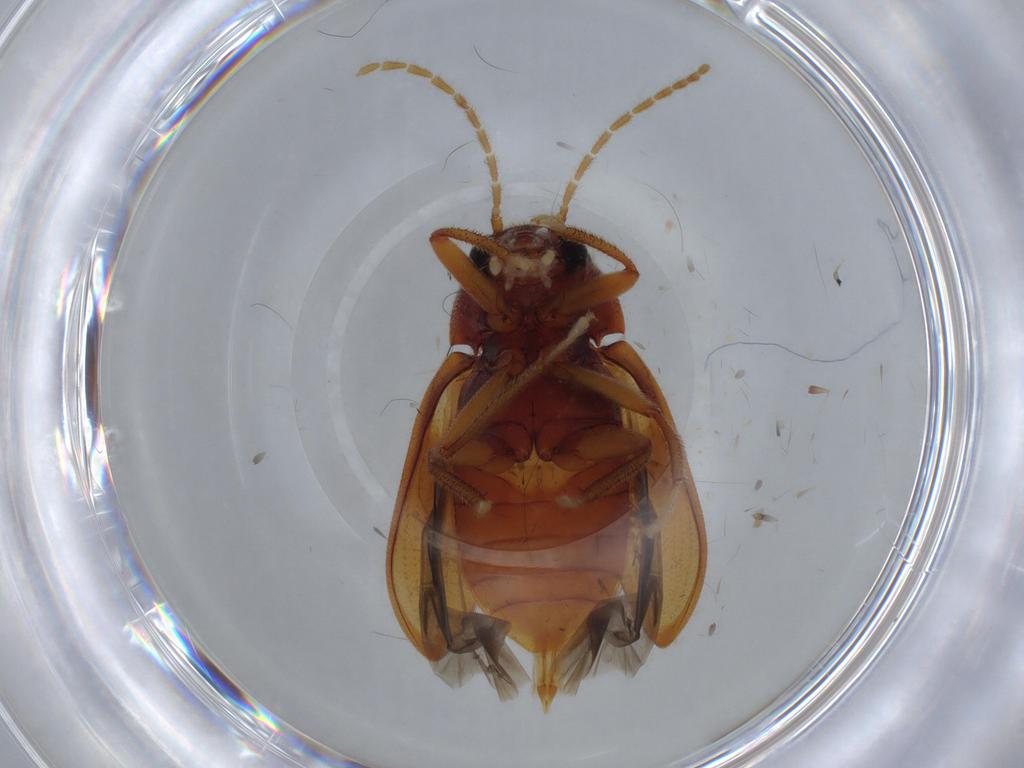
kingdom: Animalia
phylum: Arthropoda
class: Insecta
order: Coleoptera
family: Ptilodactylidae
